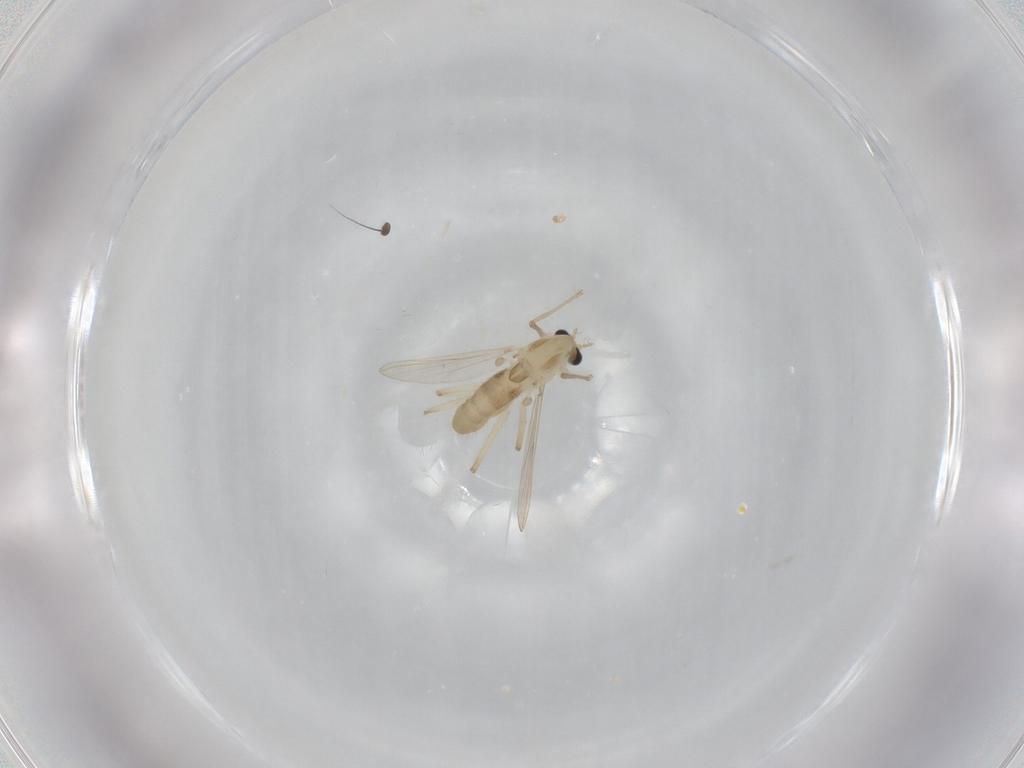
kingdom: Animalia
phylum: Arthropoda
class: Insecta
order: Diptera
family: Chironomidae
